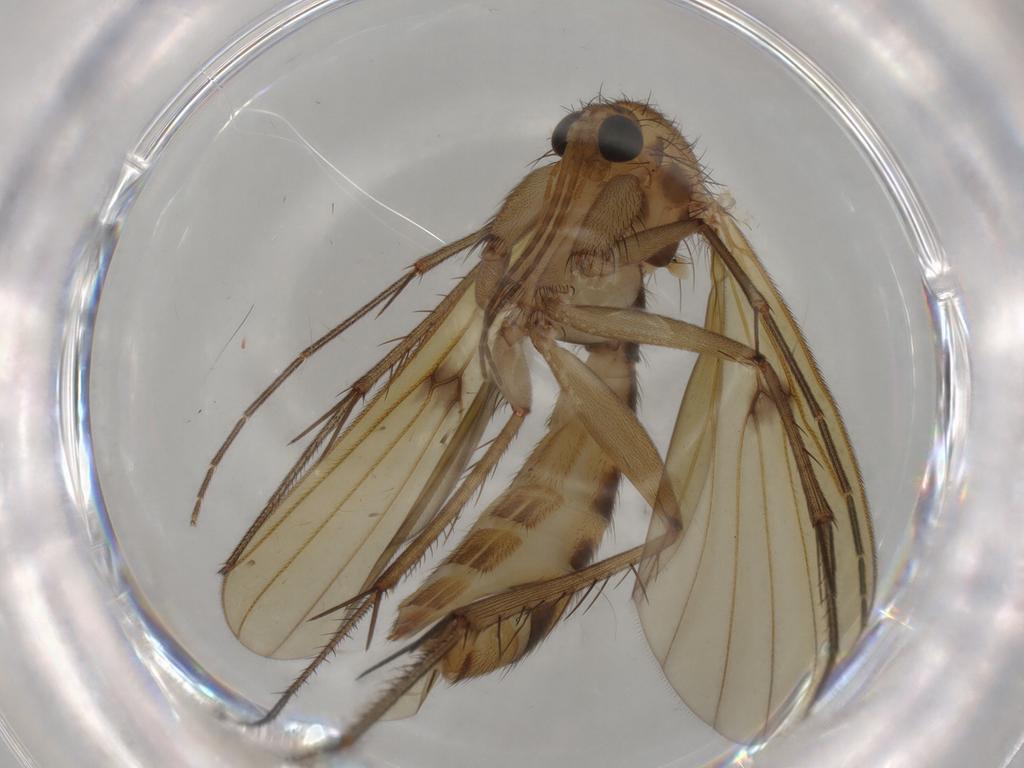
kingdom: Animalia
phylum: Arthropoda
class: Insecta
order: Diptera
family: Mycetophilidae
